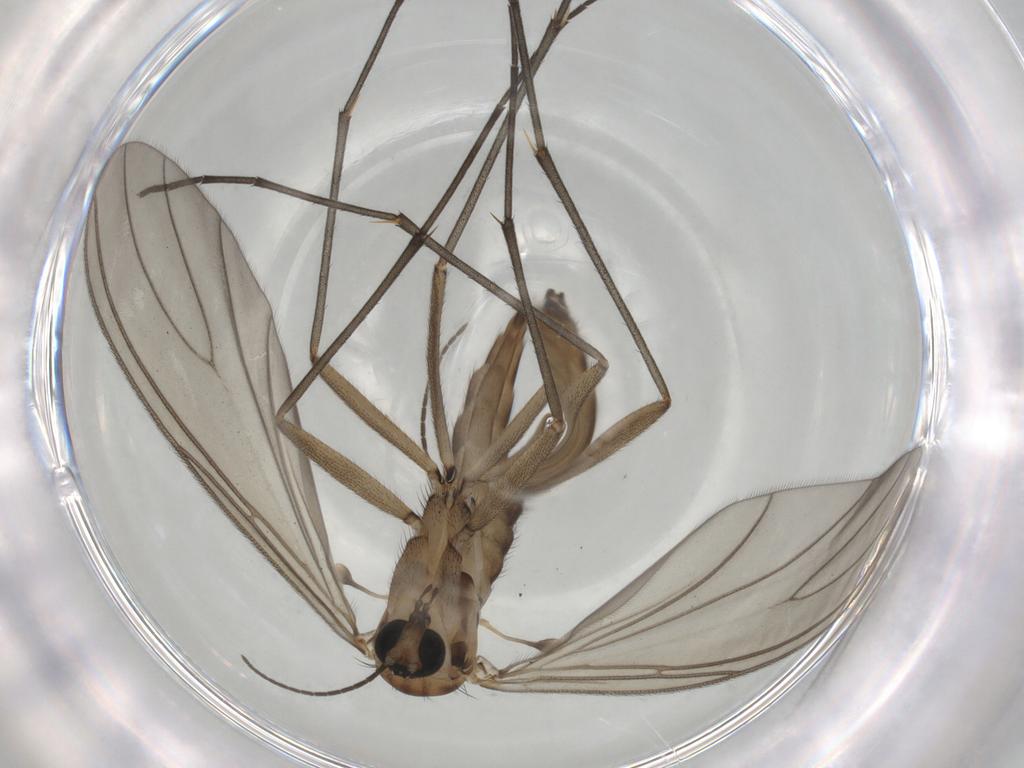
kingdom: Animalia
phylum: Arthropoda
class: Insecta
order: Diptera
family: Sciaridae
